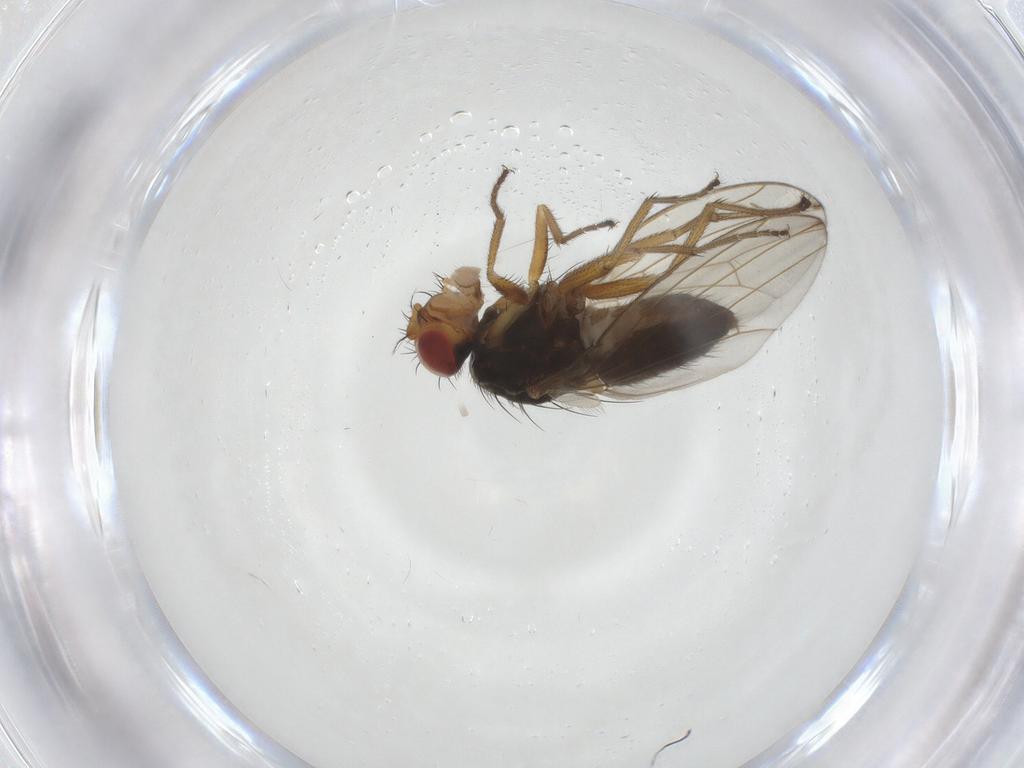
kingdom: Animalia
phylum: Arthropoda
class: Insecta
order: Diptera
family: Drosophilidae
